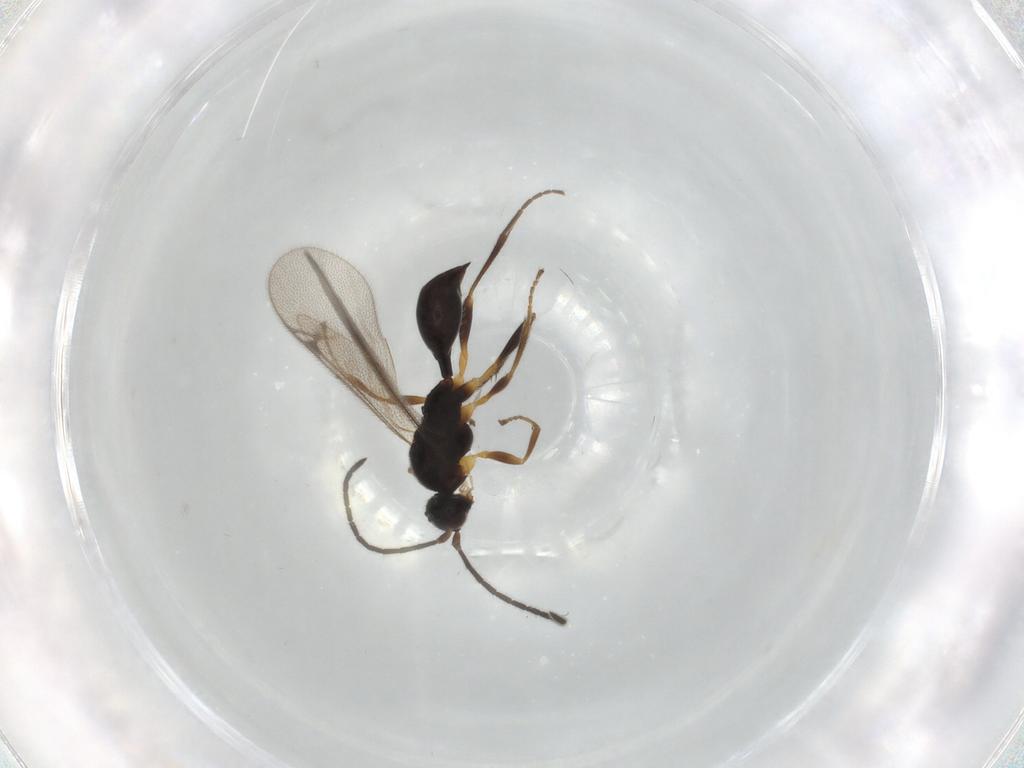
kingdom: Animalia
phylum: Arthropoda
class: Insecta
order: Hymenoptera
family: Proctotrupidae
